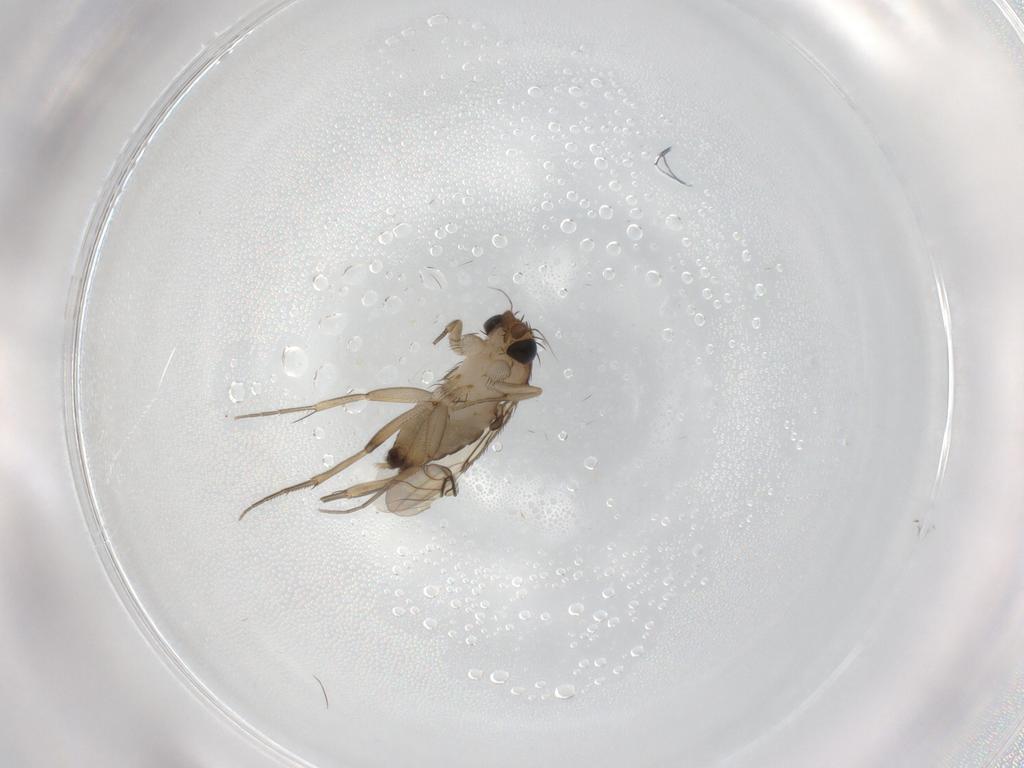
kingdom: Animalia
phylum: Arthropoda
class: Insecta
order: Diptera
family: Phoridae
